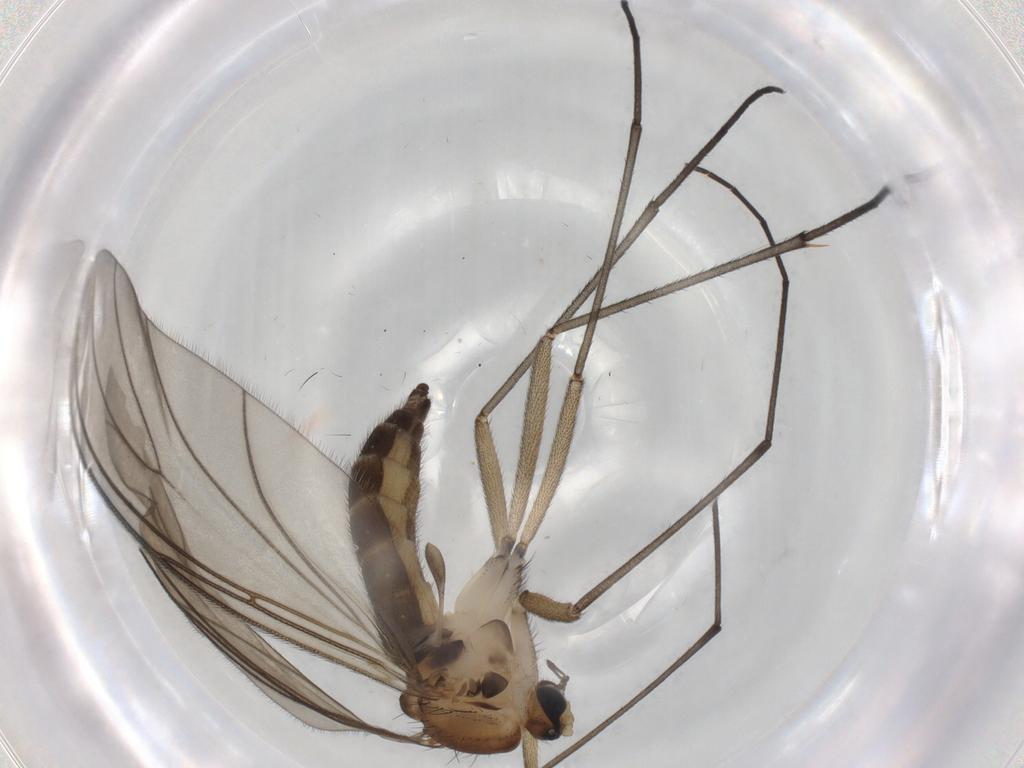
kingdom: Animalia
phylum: Arthropoda
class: Insecta
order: Diptera
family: Sciaridae
